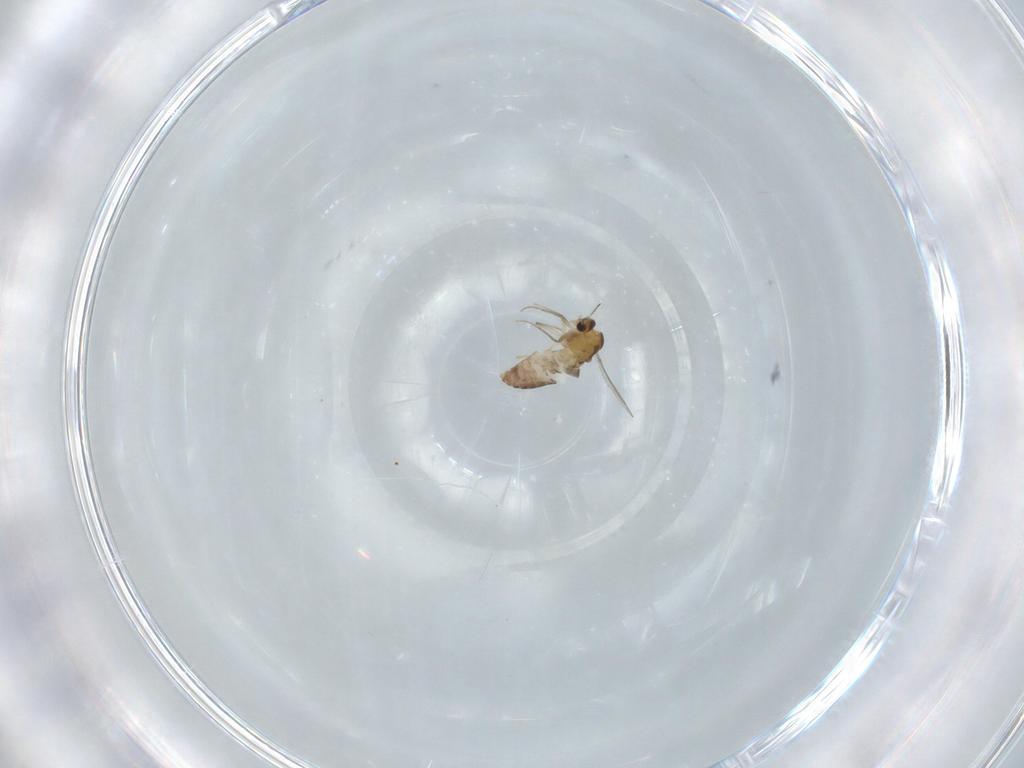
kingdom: Animalia
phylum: Arthropoda
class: Insecta
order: Diptera
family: Chironomidae
